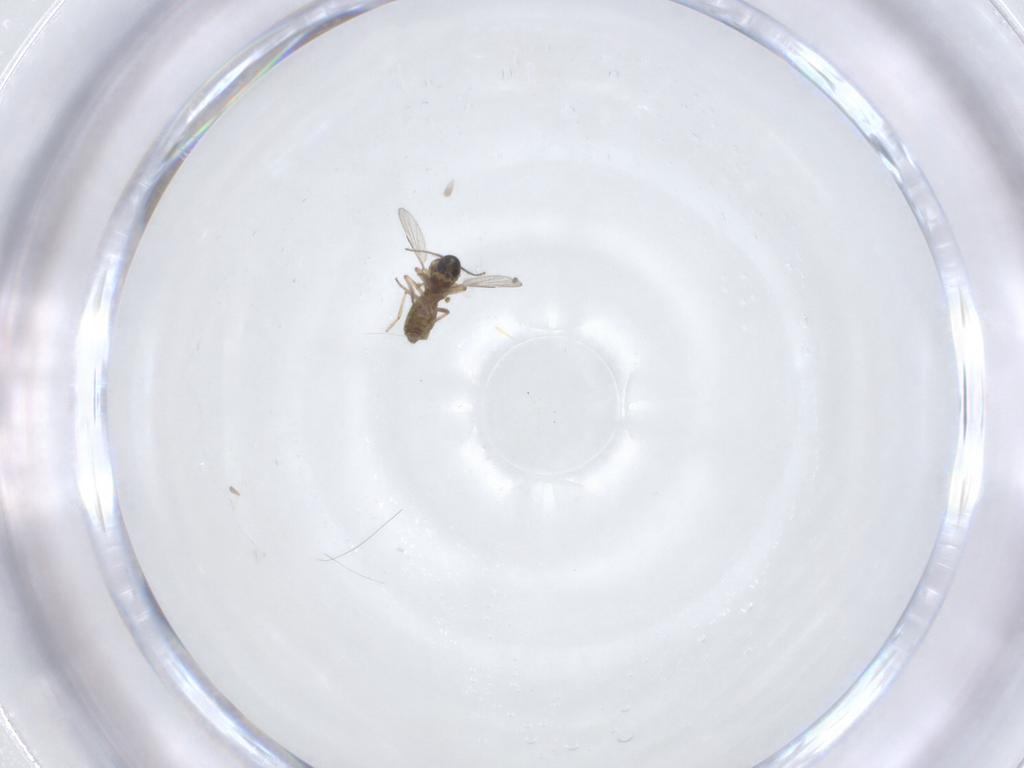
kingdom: Animalia
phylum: Arthropoda
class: Insecta
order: Diptera
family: Ceratopogonidae
